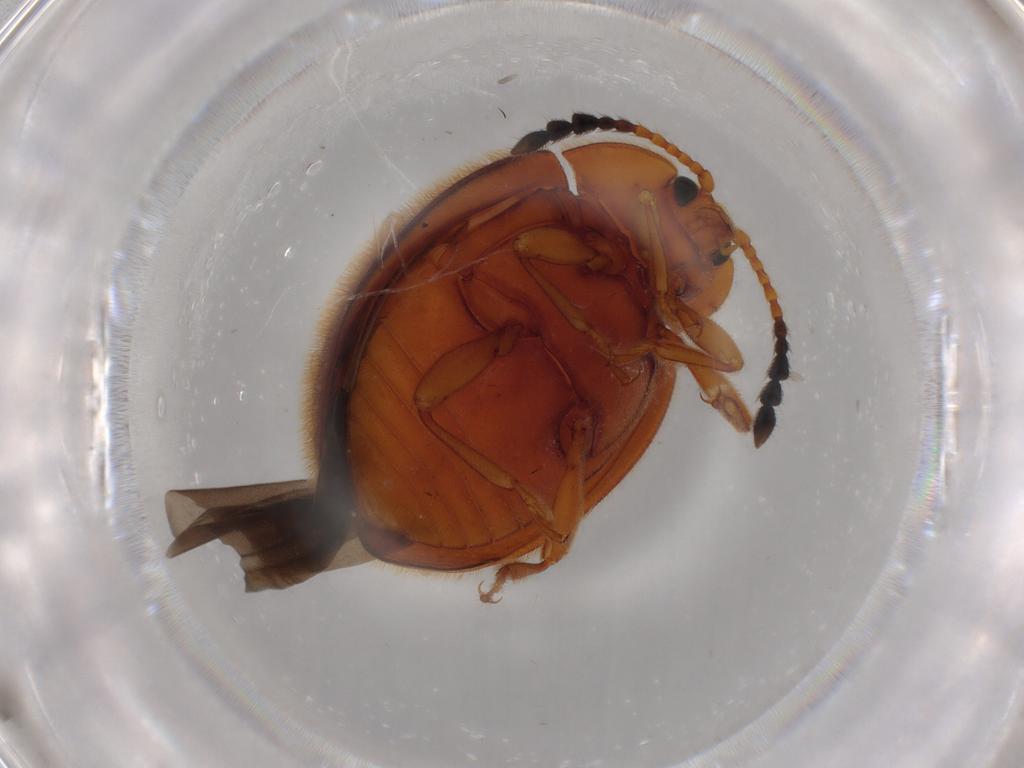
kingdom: Animalia
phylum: Arthropoda
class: Insecta
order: Coleoptera
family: Endomychidae
